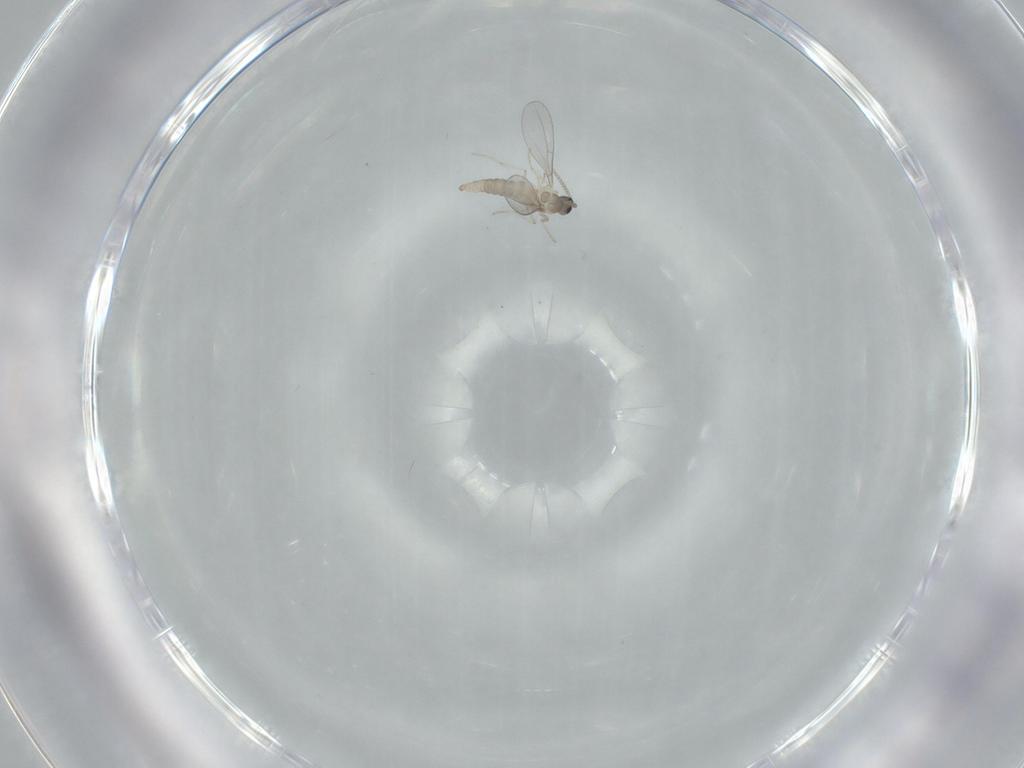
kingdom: Animalia
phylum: Arthropoda
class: Insecta
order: Diptera
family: Cecidomyiidae
